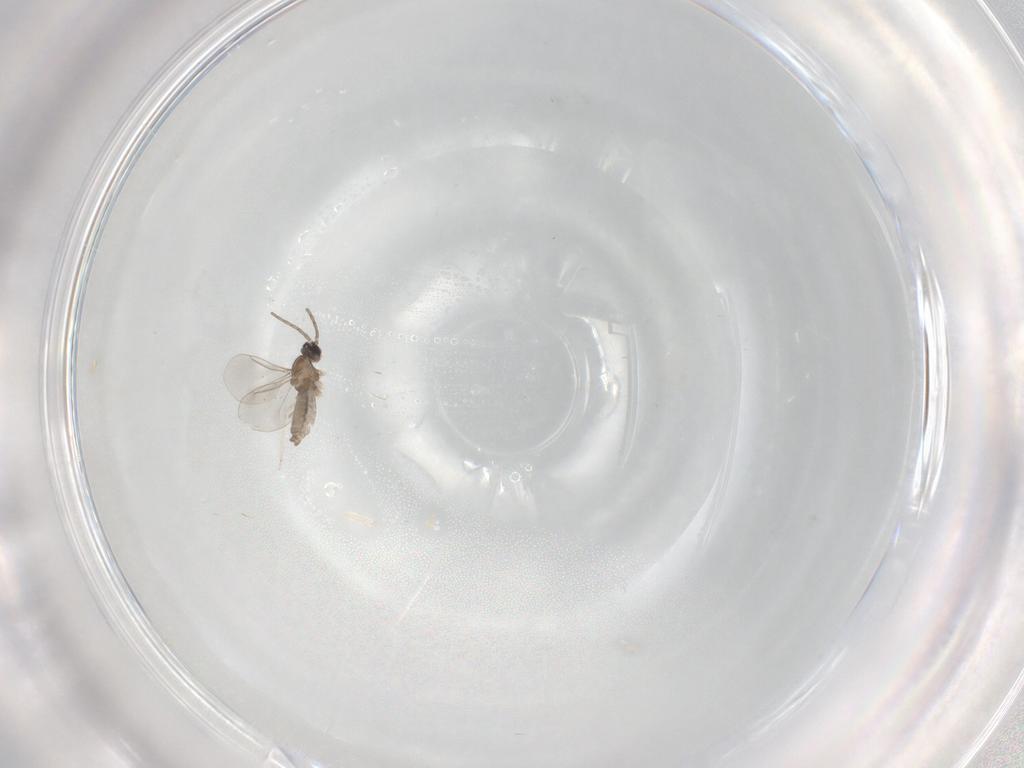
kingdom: Animalia
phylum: Arthropoda
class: Insecta
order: Diptera
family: Cecidomyiidae
